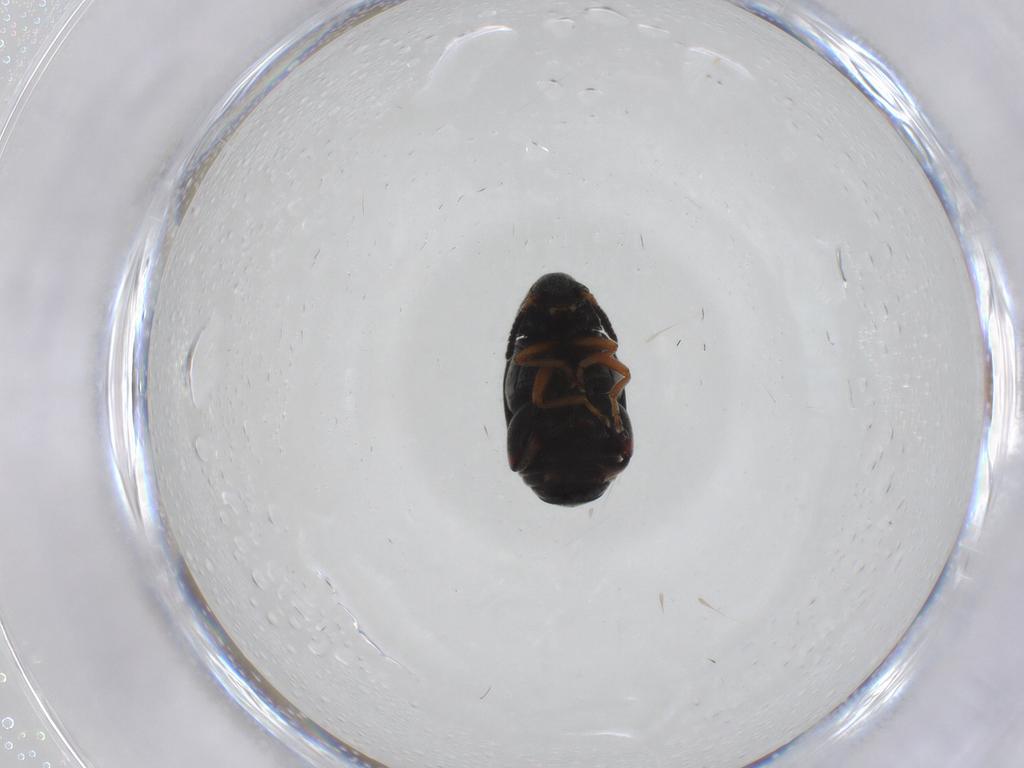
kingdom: Animalia
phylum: Arthropoda
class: Insecta
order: Coleoptera
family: Chrysomelidae
